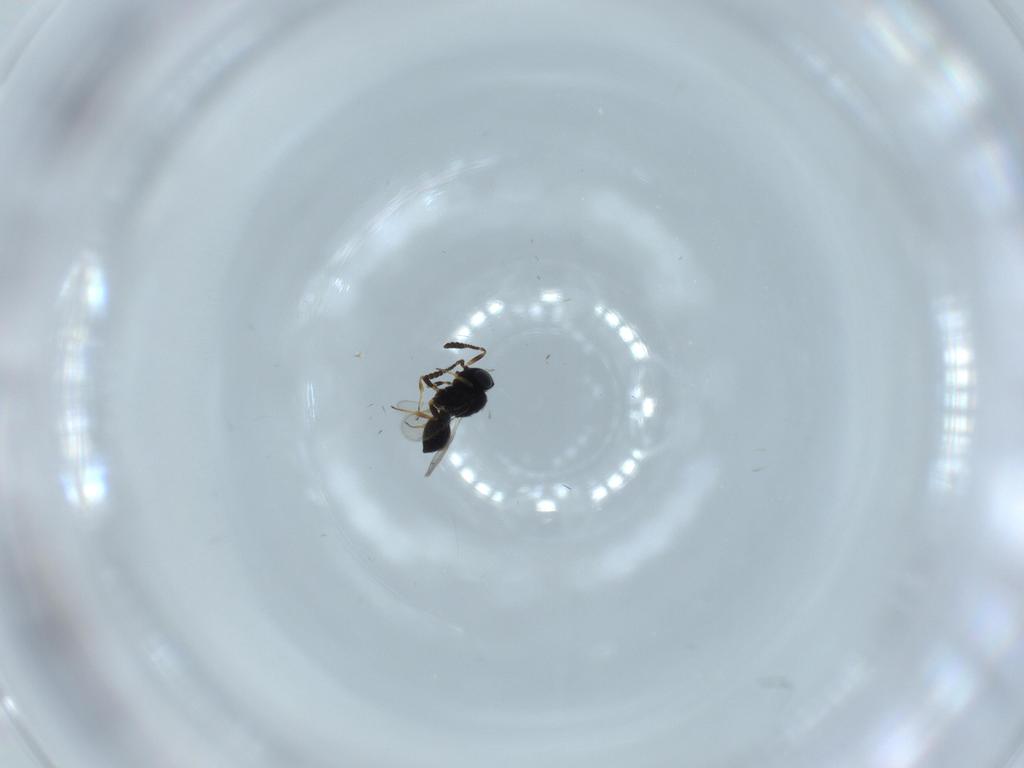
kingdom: Animalia
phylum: Arthropoda
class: Insecta
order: Hymenoptera
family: Scelionidae
